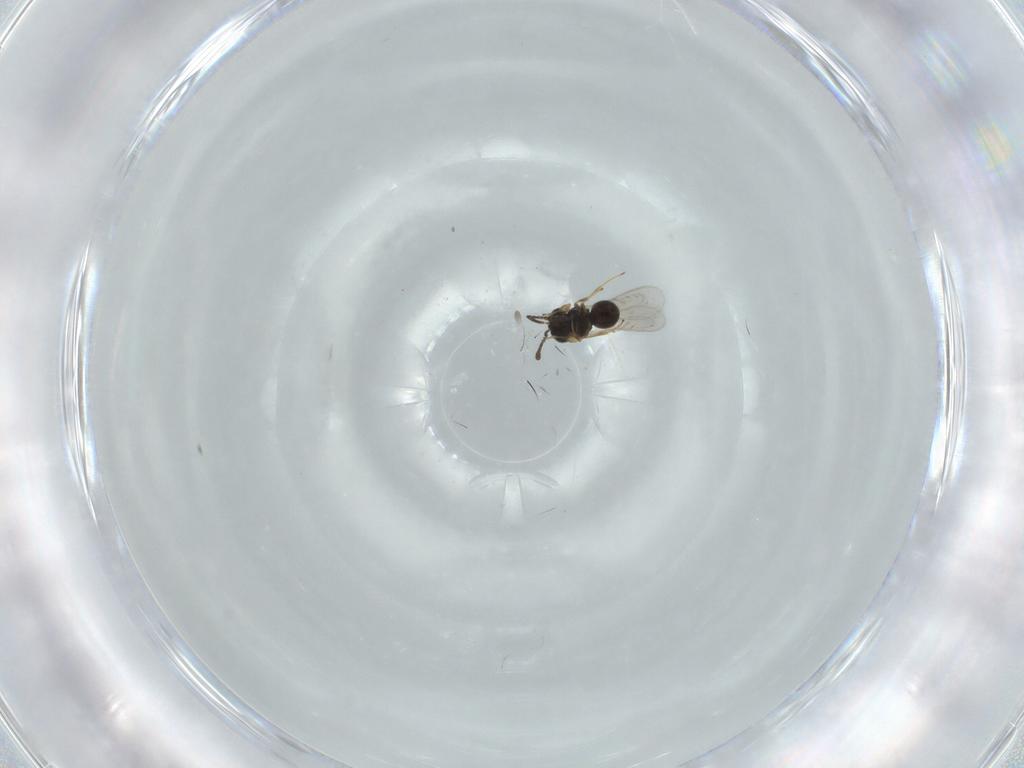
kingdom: Animalia
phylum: Arthropoda
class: Insecta
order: Hymenoptera
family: Scelionidae
